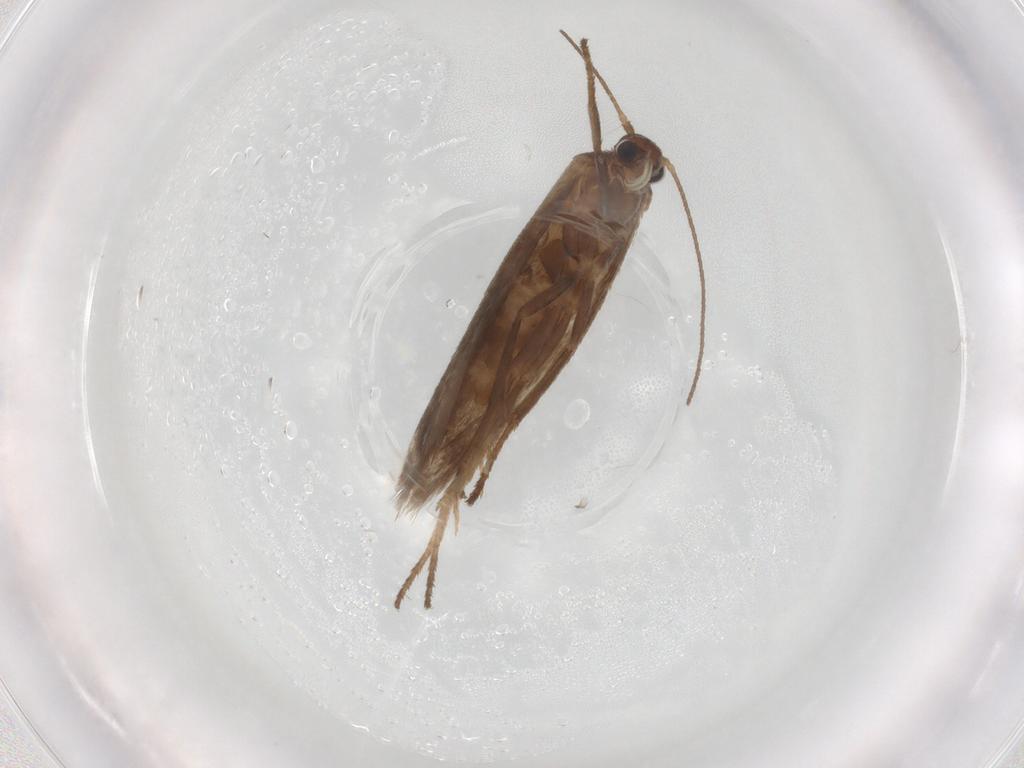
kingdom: Animalia
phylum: Arthropoda
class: Insecta
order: Lepidoptera
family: Limacodidae
